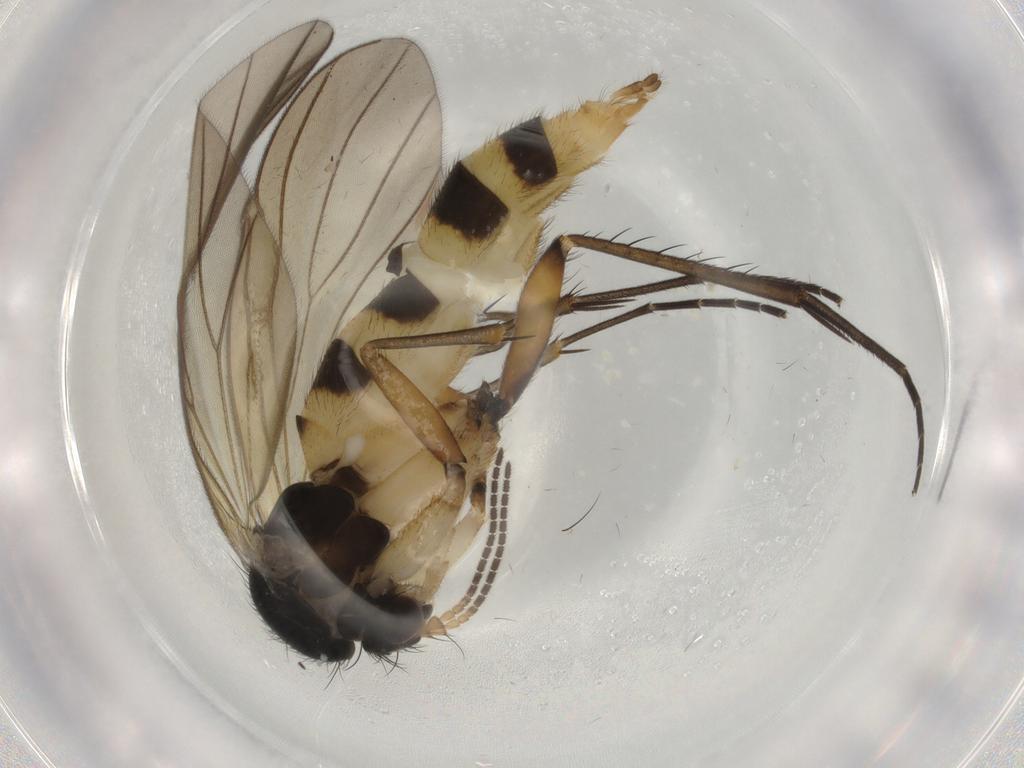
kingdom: Animalia
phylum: Arthropoda
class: Insecta
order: Diptera
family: Mycetophilidae
